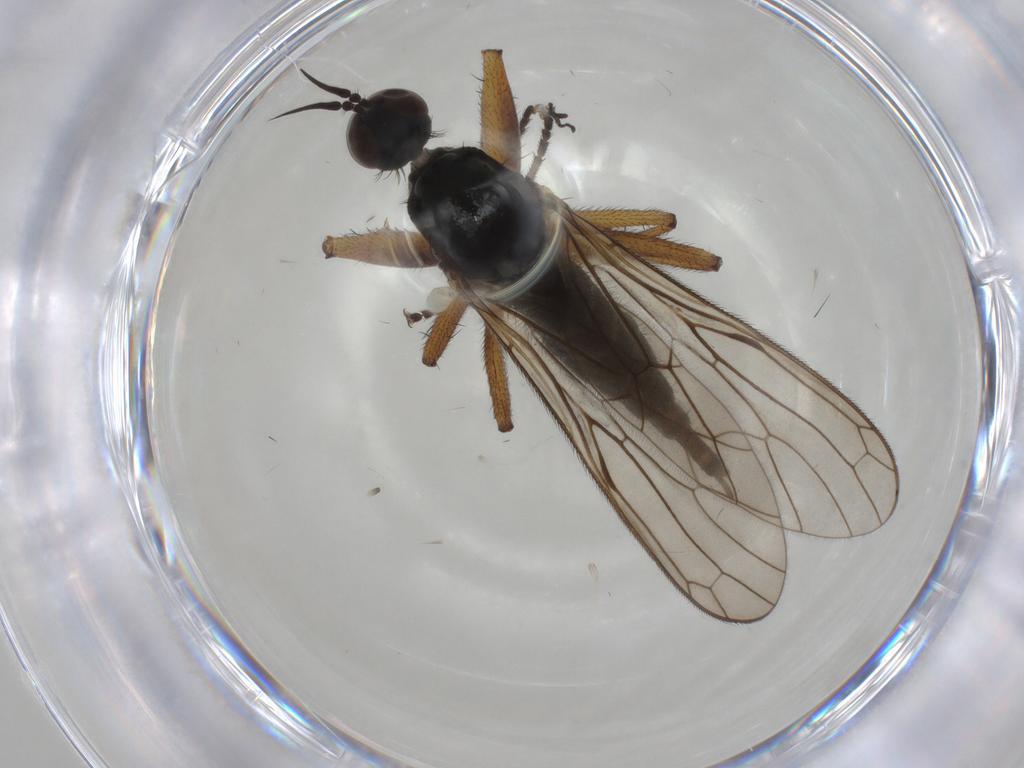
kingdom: Animalia
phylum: Arthropoda
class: Insecta
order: Diptera
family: Cecidomyiidae
